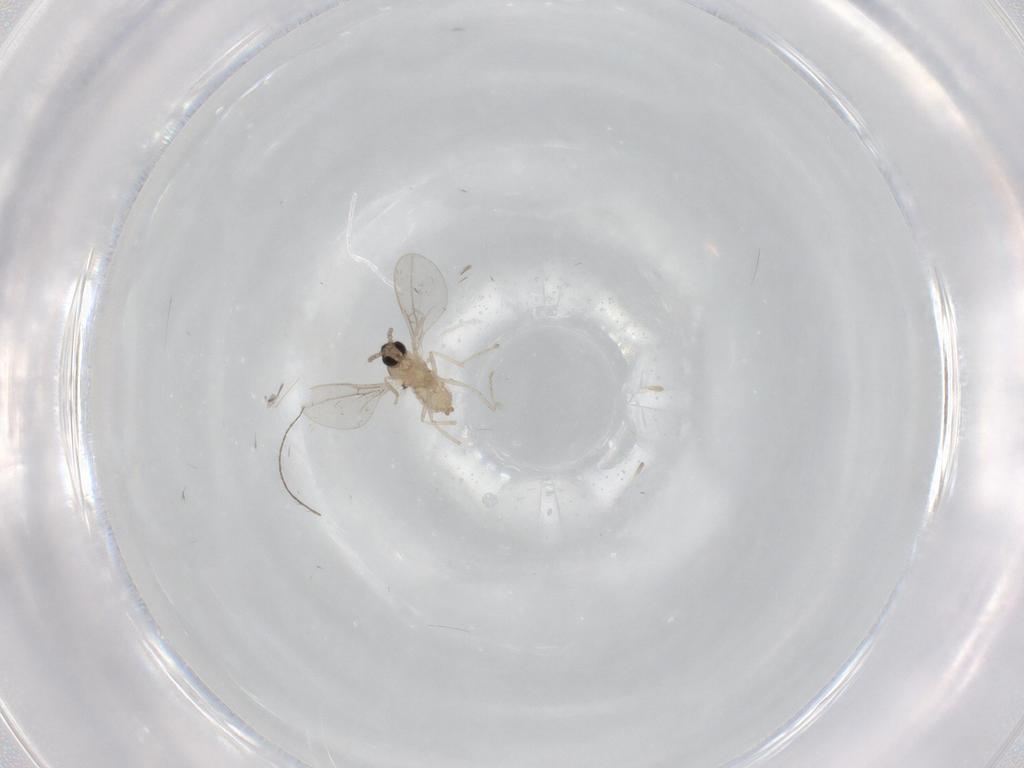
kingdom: Animalia
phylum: Arthropoda
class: Insecta
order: Diptera
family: Cecidomyiidae
